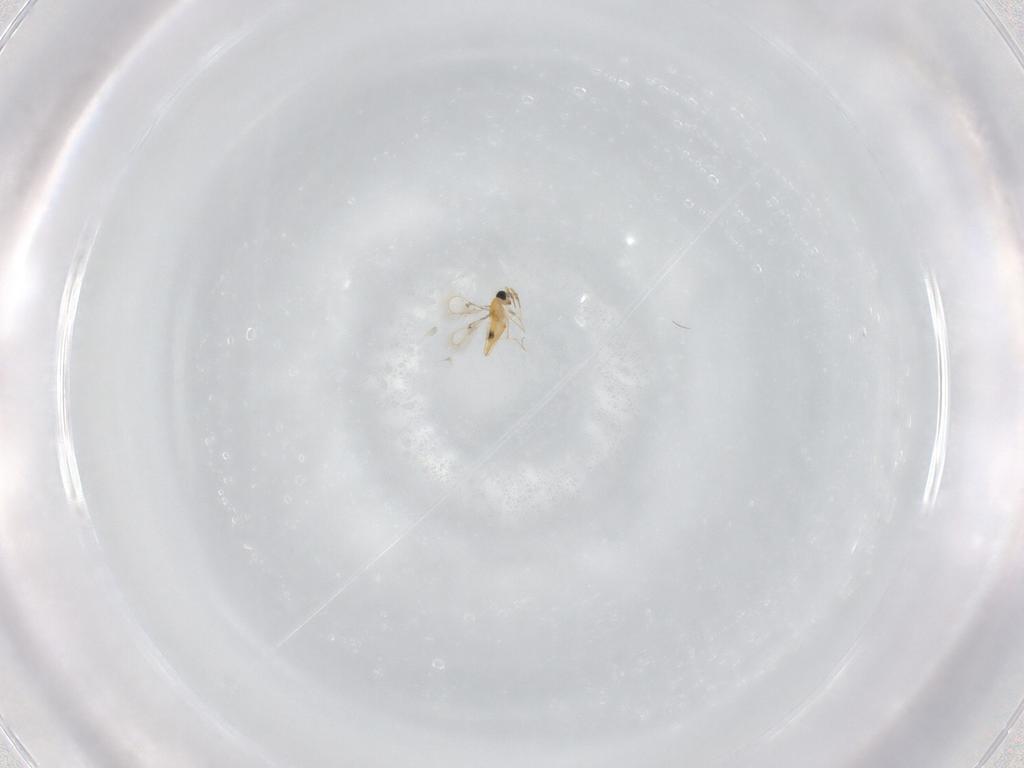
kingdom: Animalia
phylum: Arthropoda
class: Insecta
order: Hymenoptera
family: Trichogrammatidae
